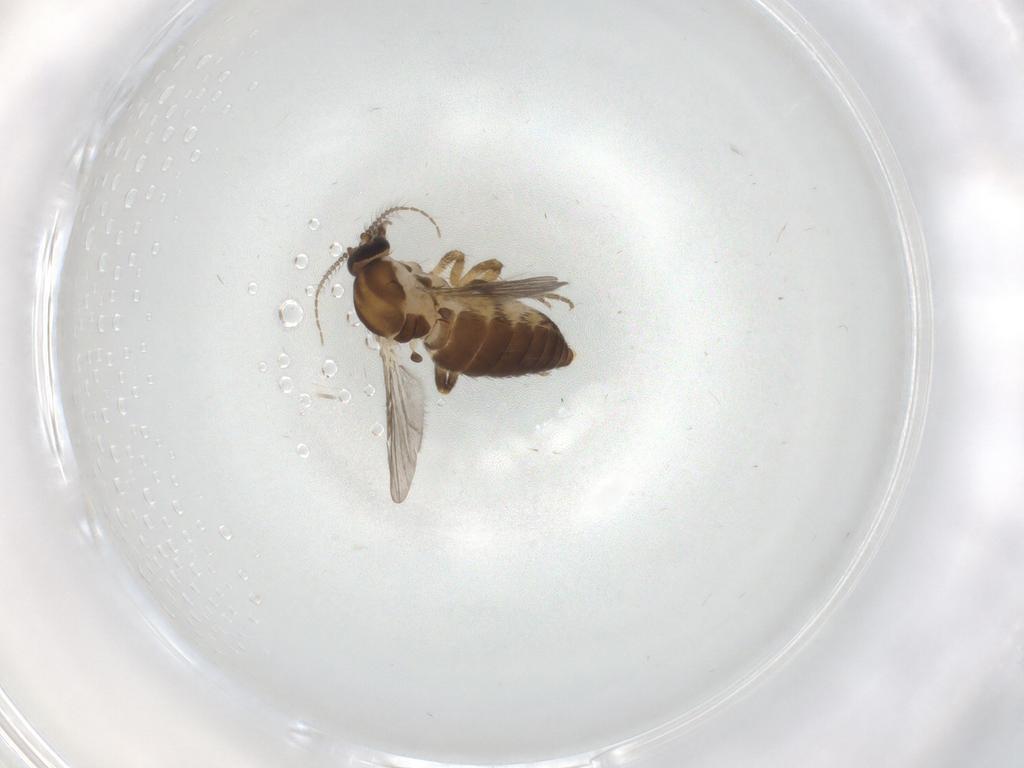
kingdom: Animalia
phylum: Arthropoda
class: Insecta
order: Diptera
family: Ceratopogonidae
